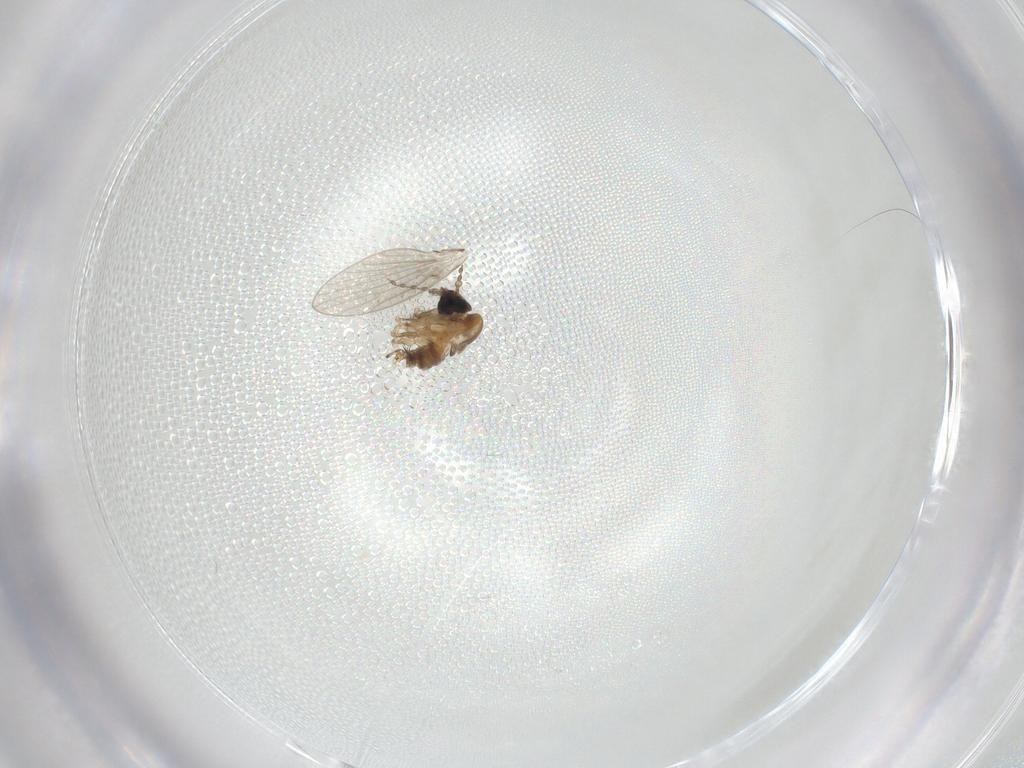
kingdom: Animalia
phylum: Arthropoda
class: Insecta
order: Diptera
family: Psychodidae
